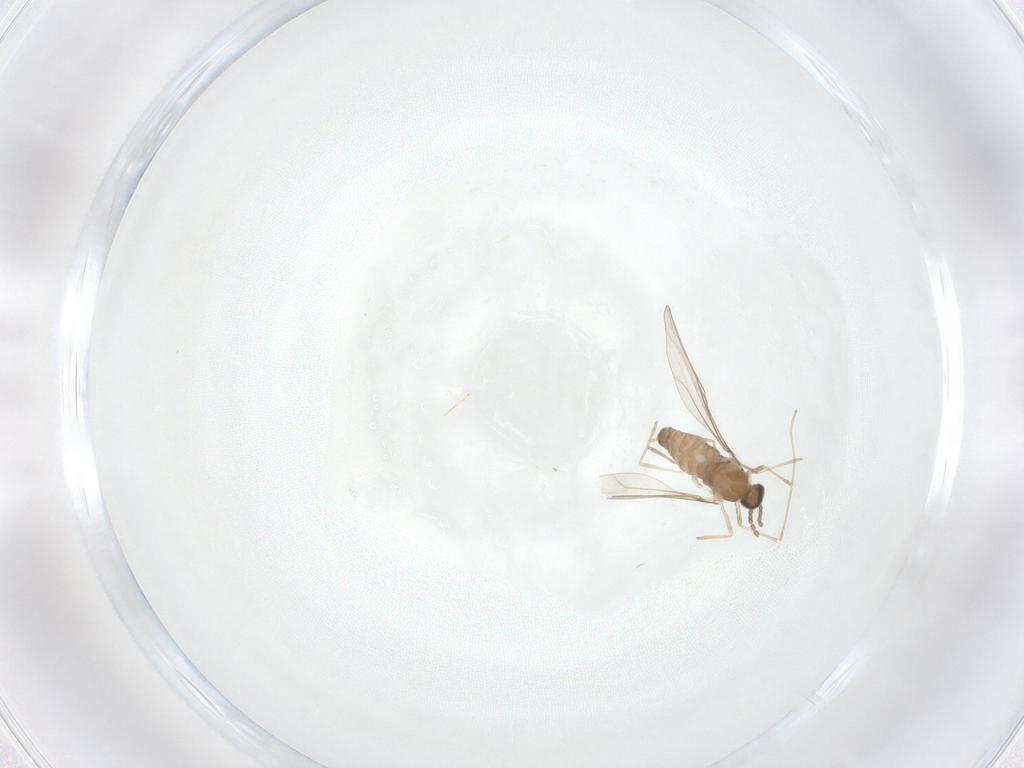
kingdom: Animalia
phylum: Arthropoda
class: Insecta
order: Diptera
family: Cecidomyiidae
